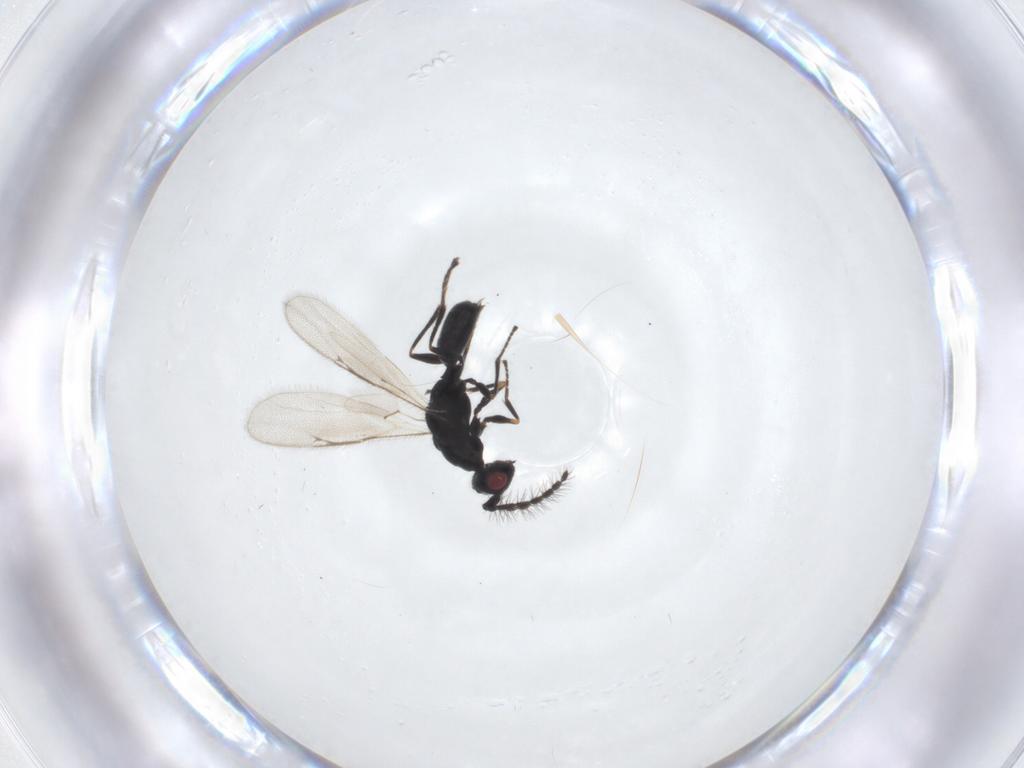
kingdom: Animalia
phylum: Arthropoda
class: Insecta
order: Hymenoptera
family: Eurytomidae
